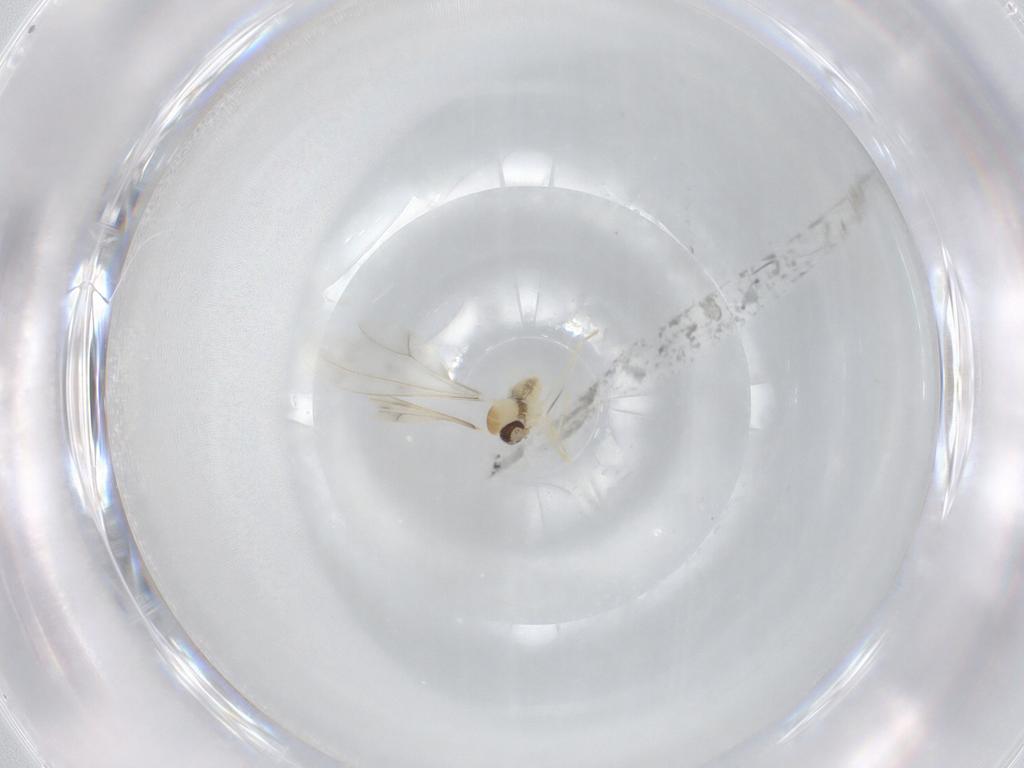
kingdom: Animalia
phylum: Arthropoda
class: Insecta
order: Diptera
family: Cecidomyiidae
